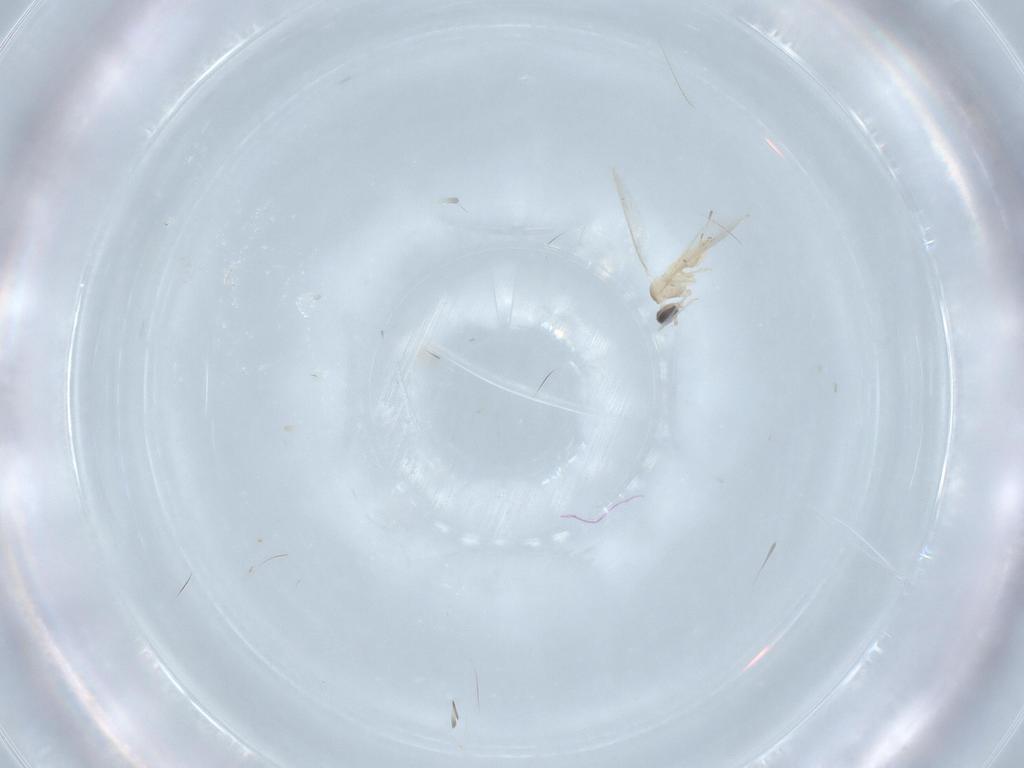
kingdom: Animalia
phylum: Arthropoda
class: Insecta
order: Diptera
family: Cecidomyiidae
